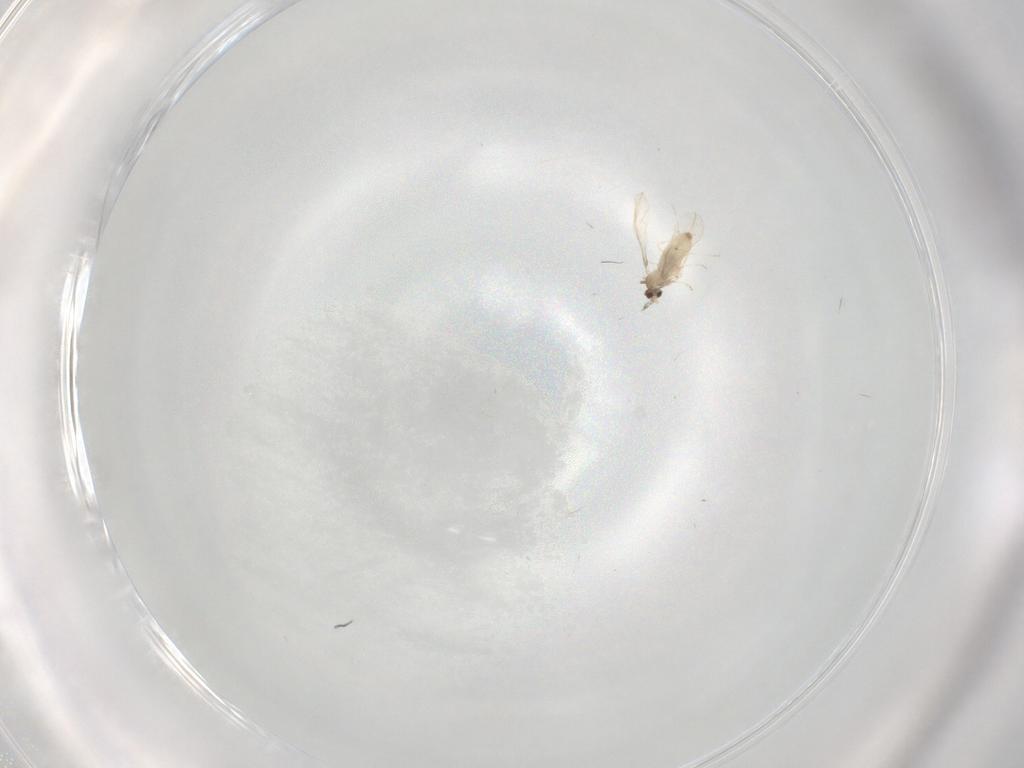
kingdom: Animalia
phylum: Arthropoda
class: Insecta
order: Diptera
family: Cecidomyiidae
